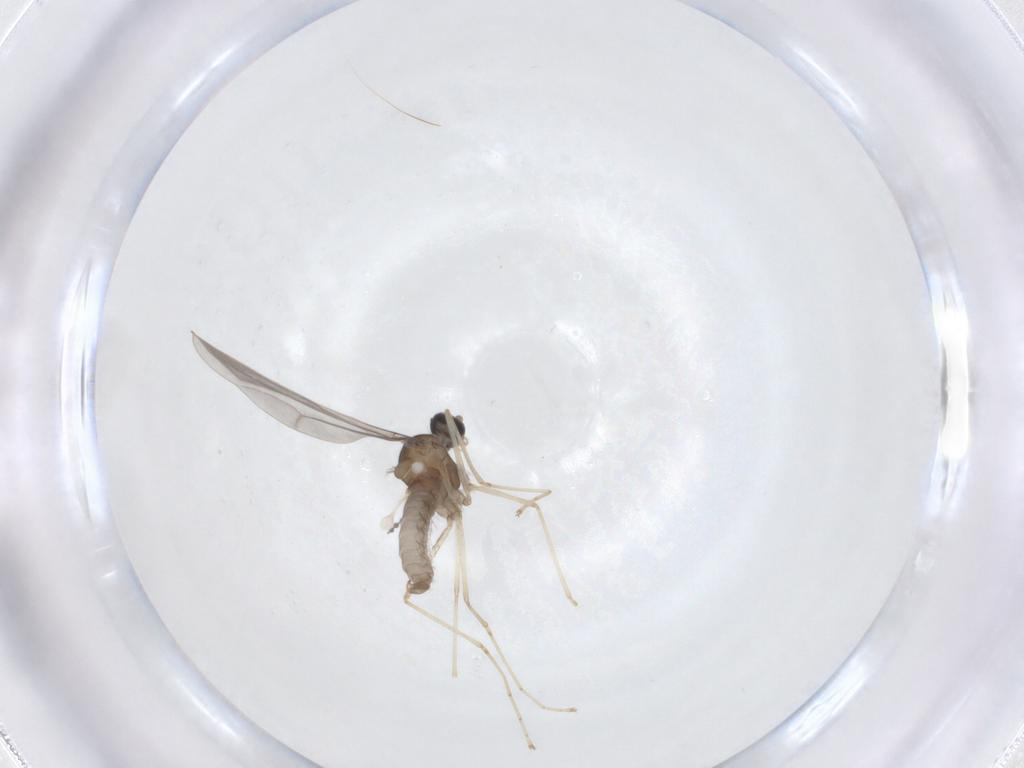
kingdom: Animalia
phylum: Arthropoda
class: Insecta
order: Diptera
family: Cecidomyiidae
